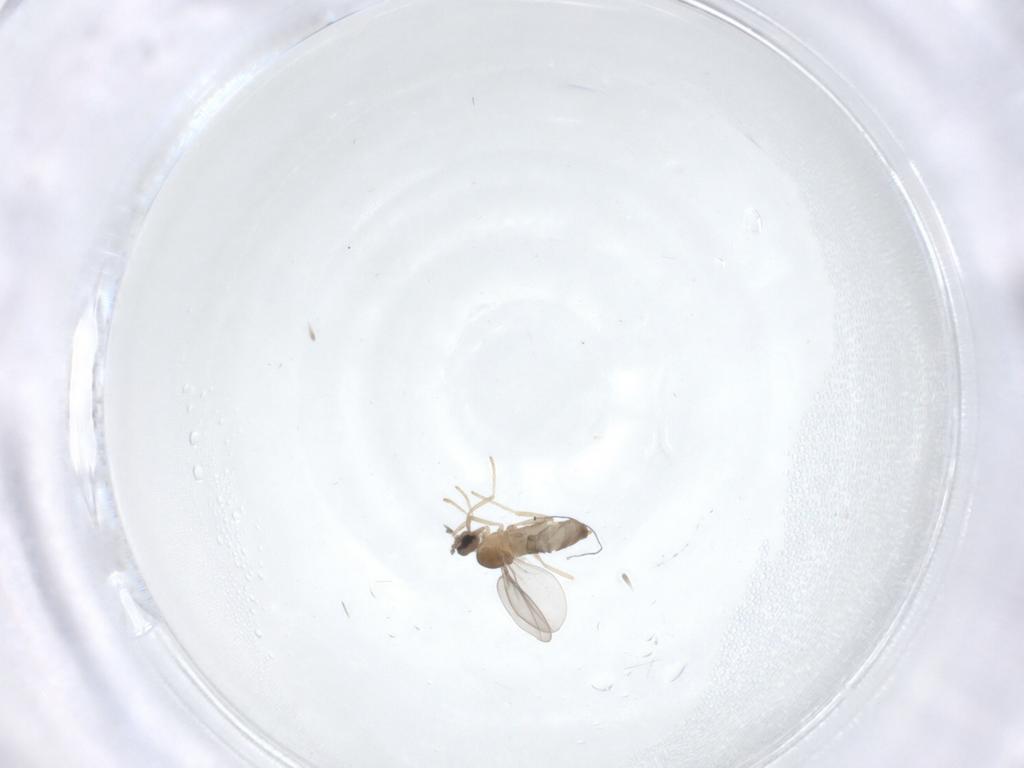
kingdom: Animalia
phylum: Arthropoda
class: Insecta
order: Diptera
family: Cecidomyiidae
